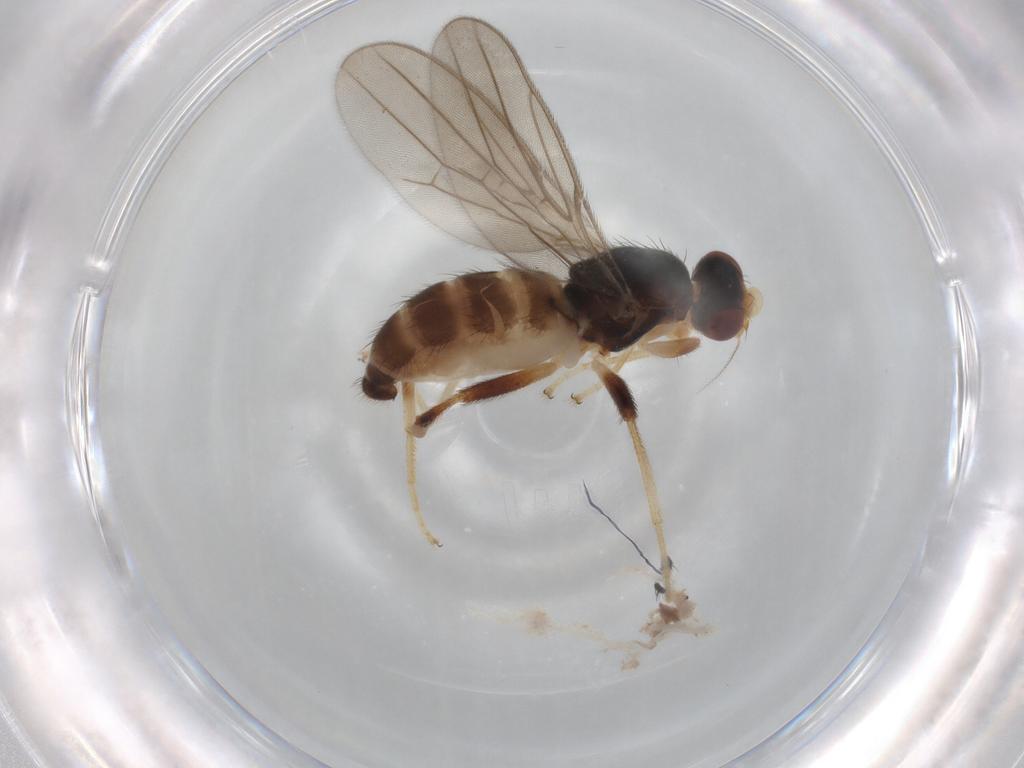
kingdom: Animalia
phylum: Arthropoda
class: Insecta
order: Diptera
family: Chloropidae
